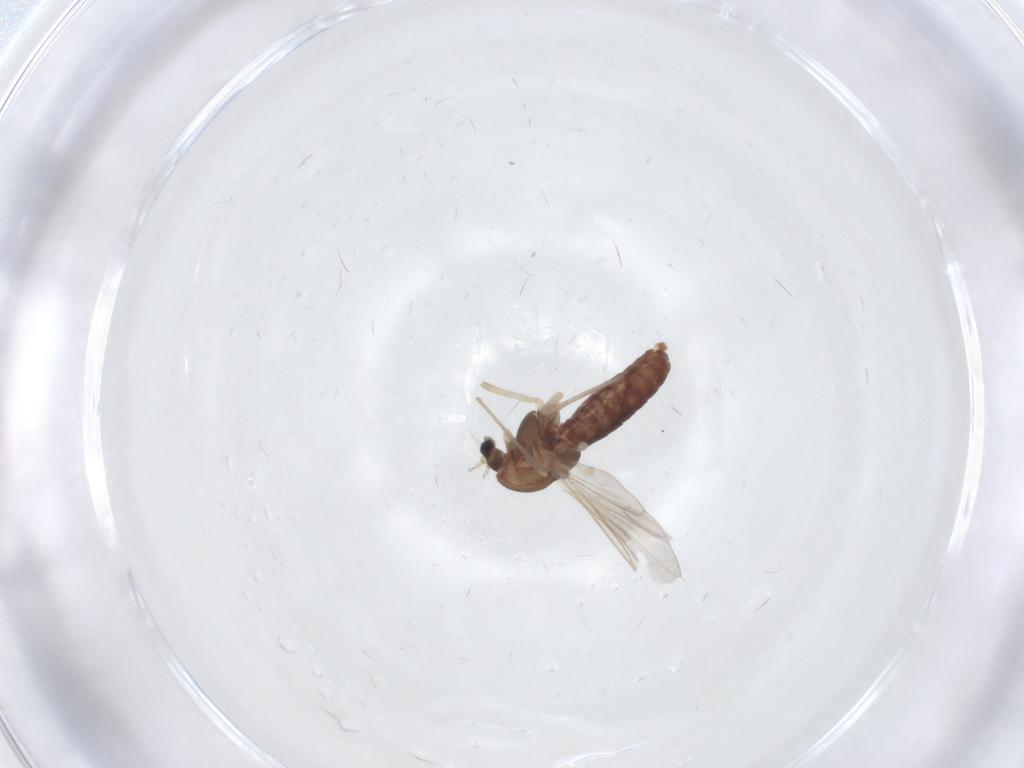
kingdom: Animalia
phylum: Arthropoda
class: Insecta
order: Diptera
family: Chironomidae
